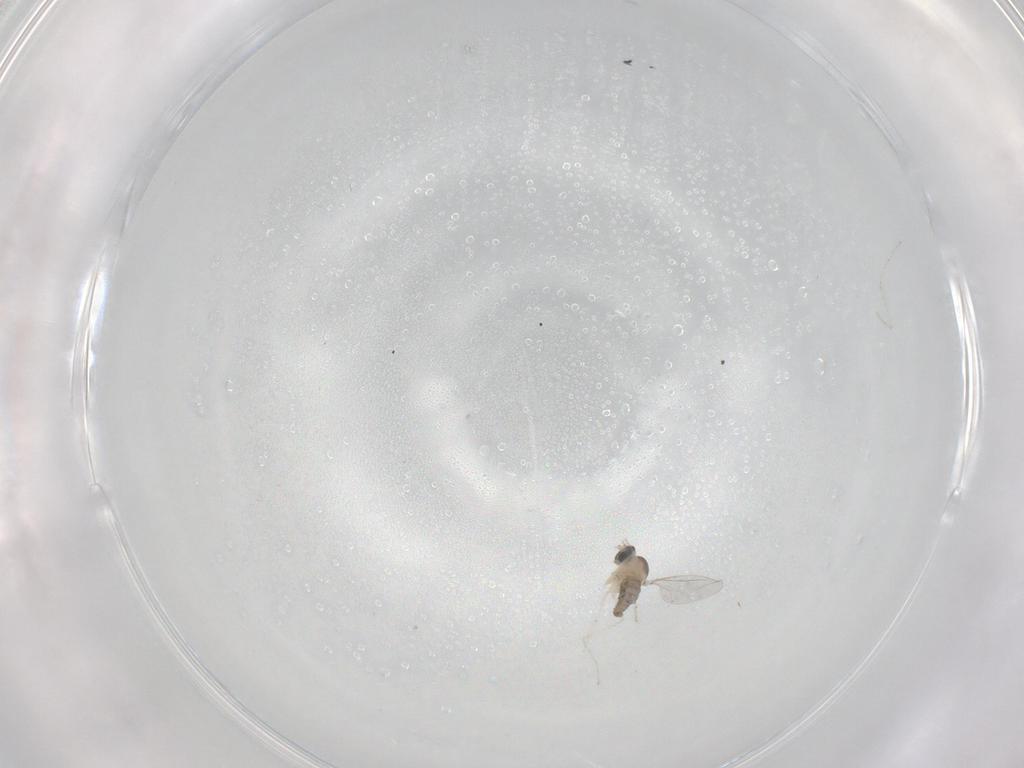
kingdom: Animalia
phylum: Arthropoda
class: Insecta
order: Diptera
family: Cecidomyiidae
